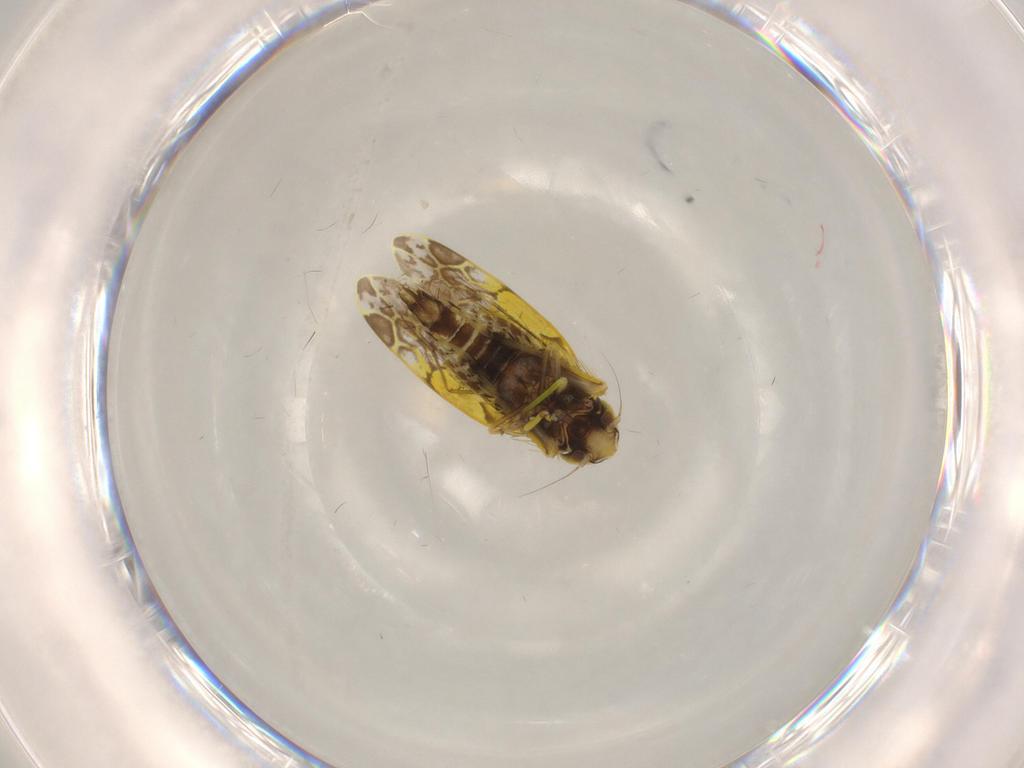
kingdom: Animalia
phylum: Arthropoda
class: Insecta
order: Hemiptera
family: Cicadellidae
